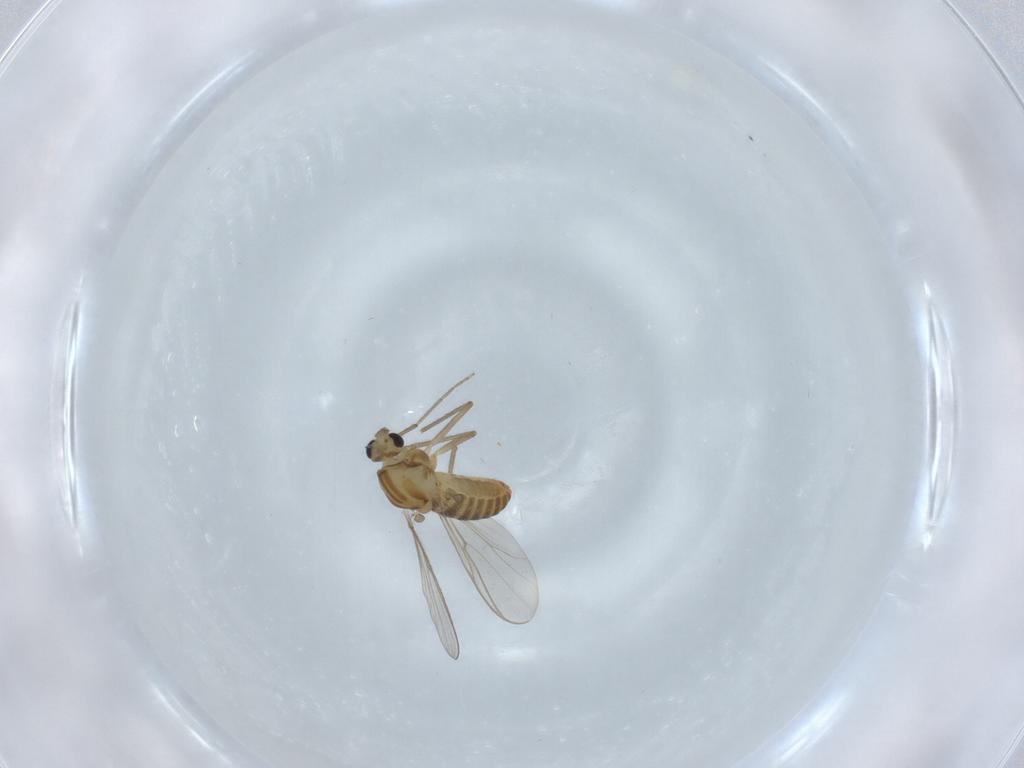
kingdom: Animalia
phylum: Arthropoda
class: Insecta
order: Diptera
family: Chironomidae
